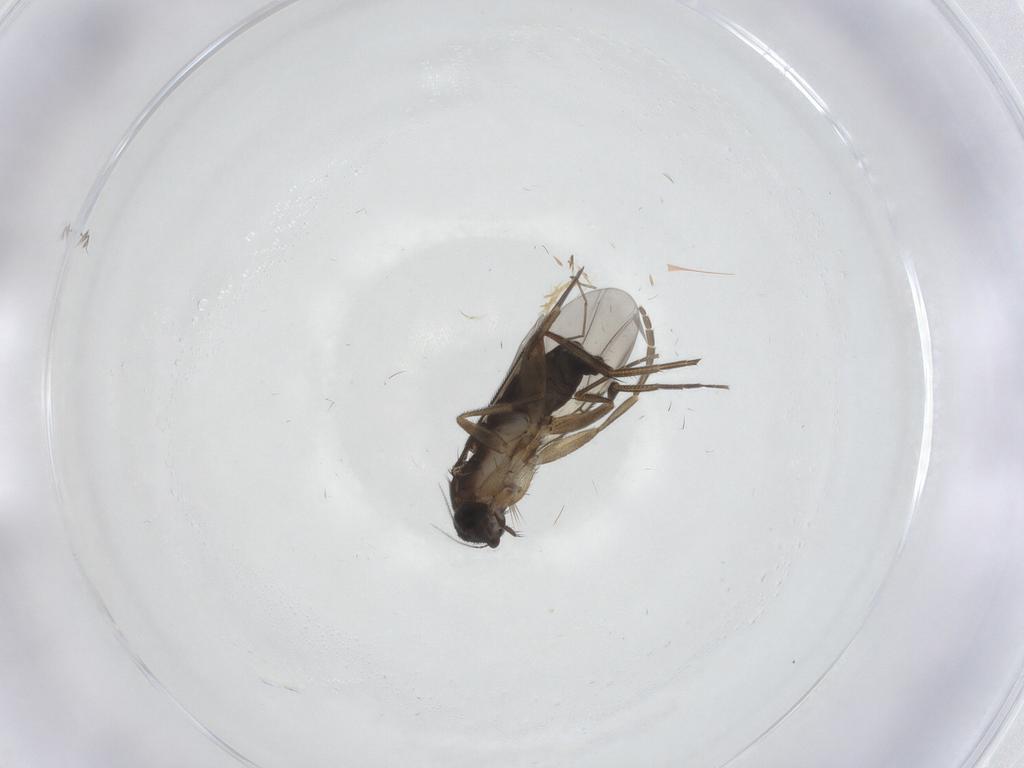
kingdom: Animalia
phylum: Arthropoda
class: Insecta
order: Diptera
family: Phoridae
